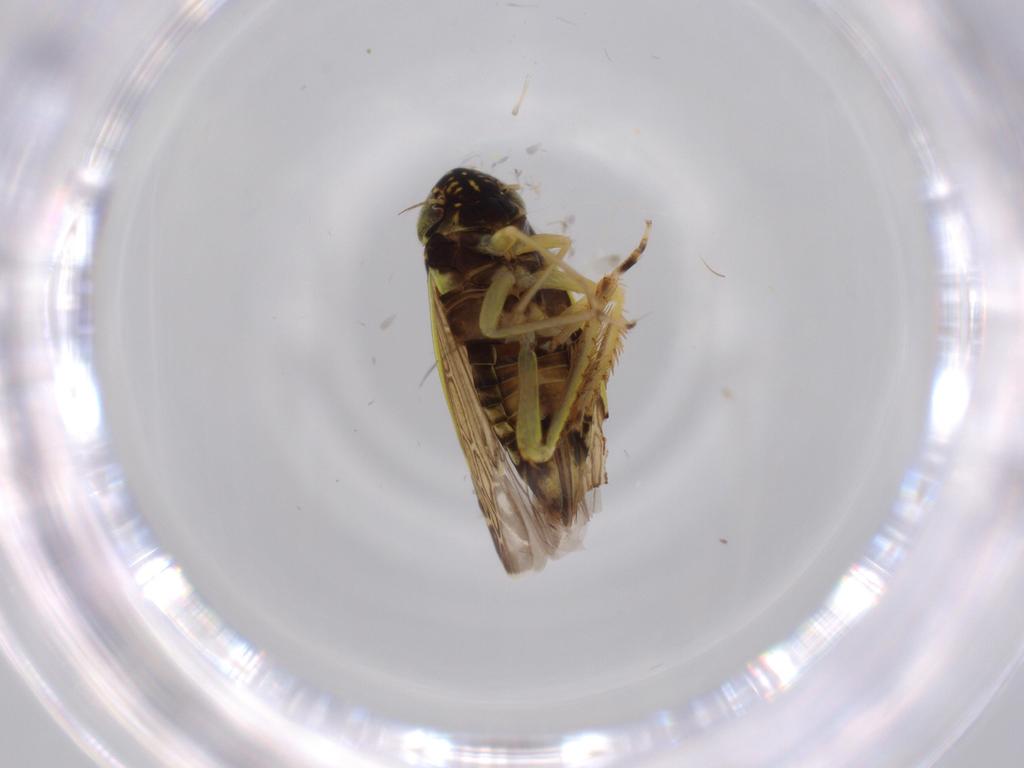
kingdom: Animalia
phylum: Arthropoda
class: Insecta
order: Hemiptera
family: Cicadellidae
